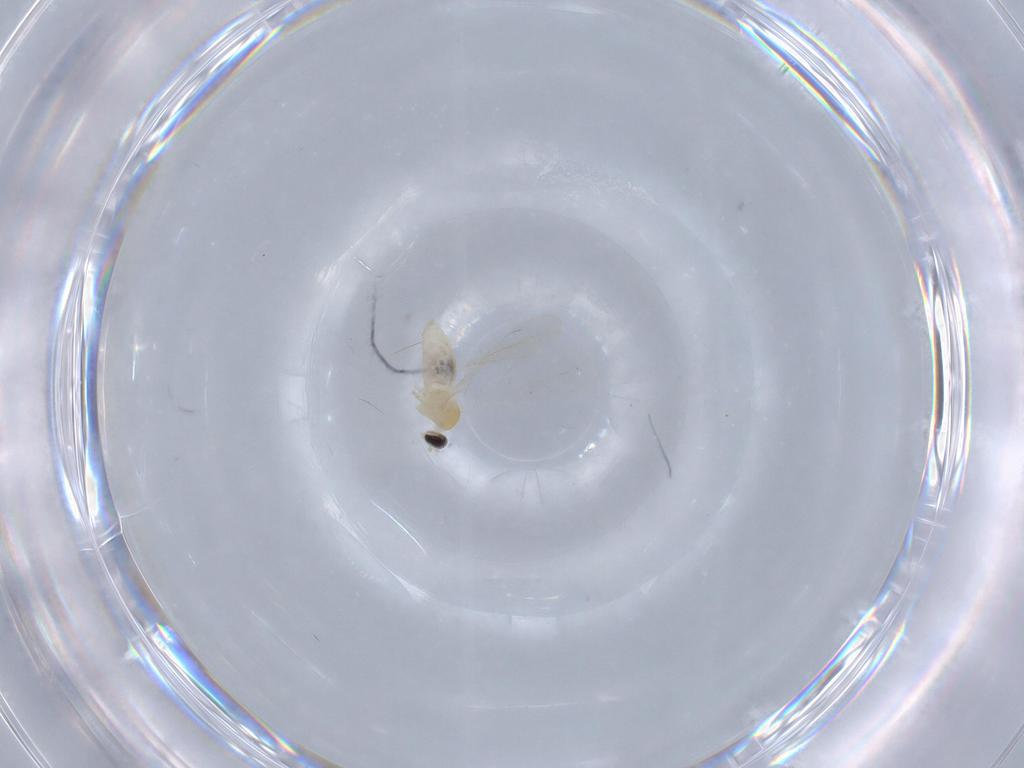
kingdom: Animalia
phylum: Arthropoda
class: Insecta
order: Diptera
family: Cecidomyiidae
